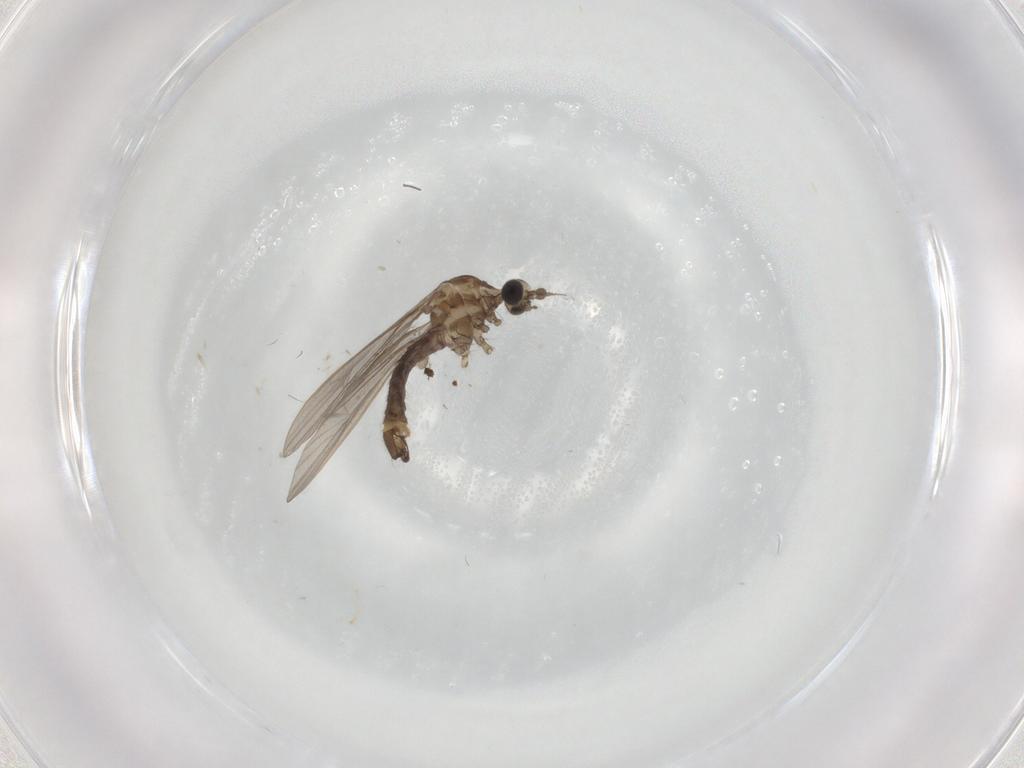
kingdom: Animalia
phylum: Arthropoda
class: Insecta
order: Diptera
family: Limoniidae
